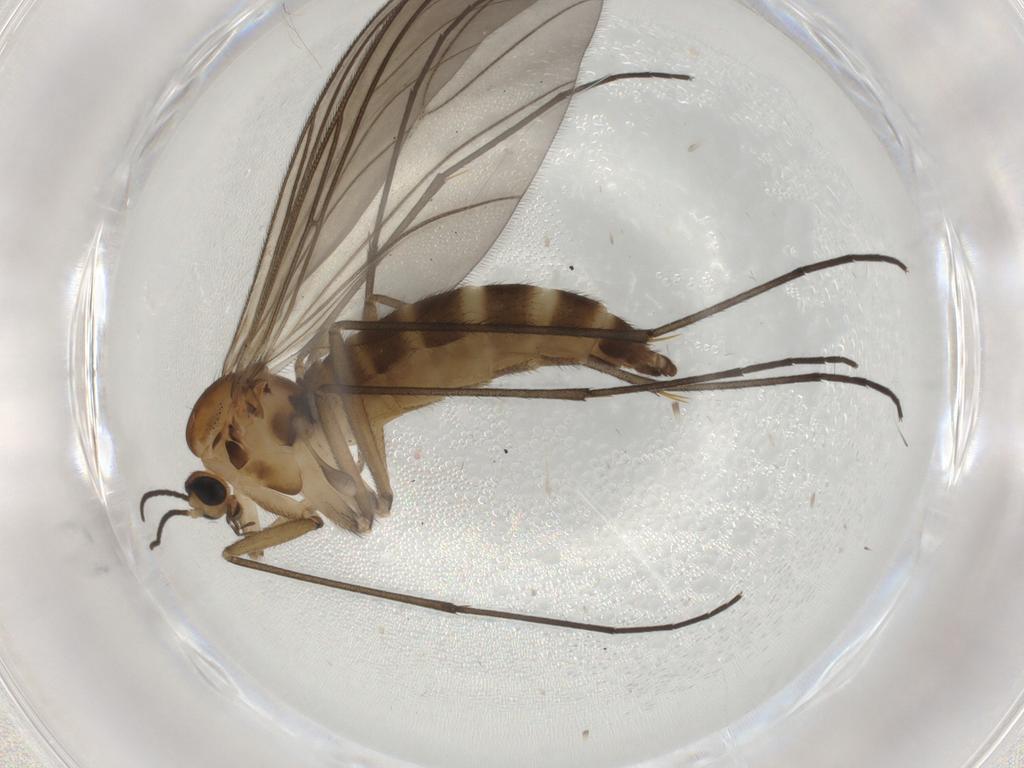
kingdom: Animalia
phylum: Arthropoda
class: Insecta
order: Diptera
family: Sciaridae
